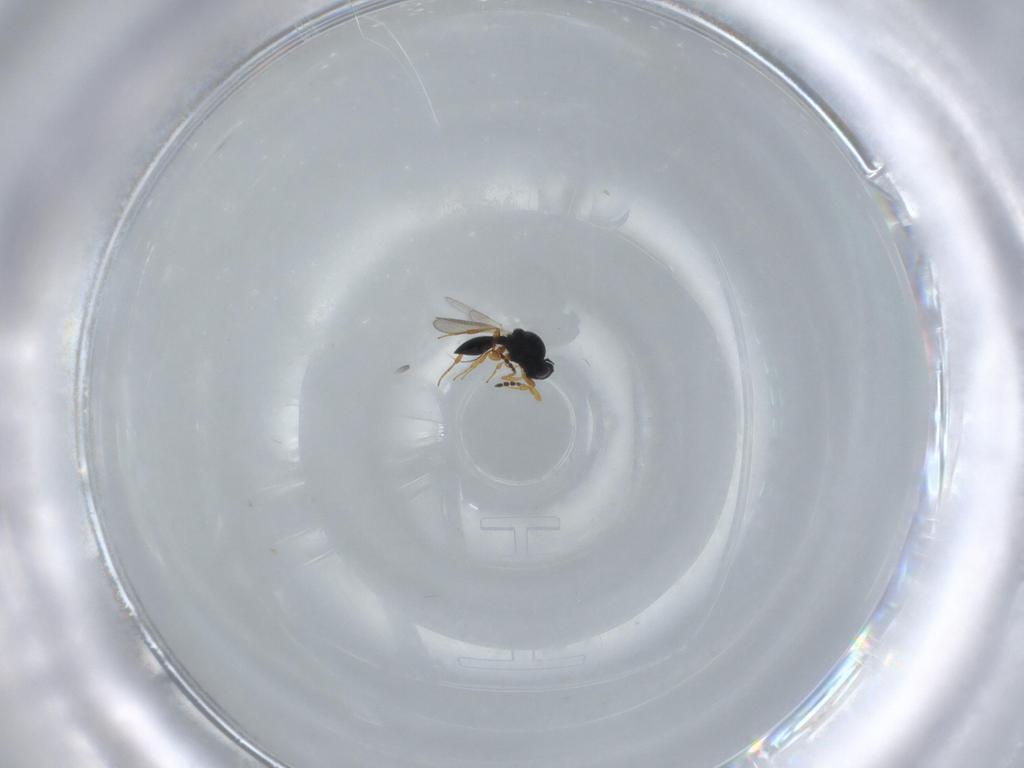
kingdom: Animalia
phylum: Arthropoda
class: Insecta
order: Hymenoptera
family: Platygastridae
